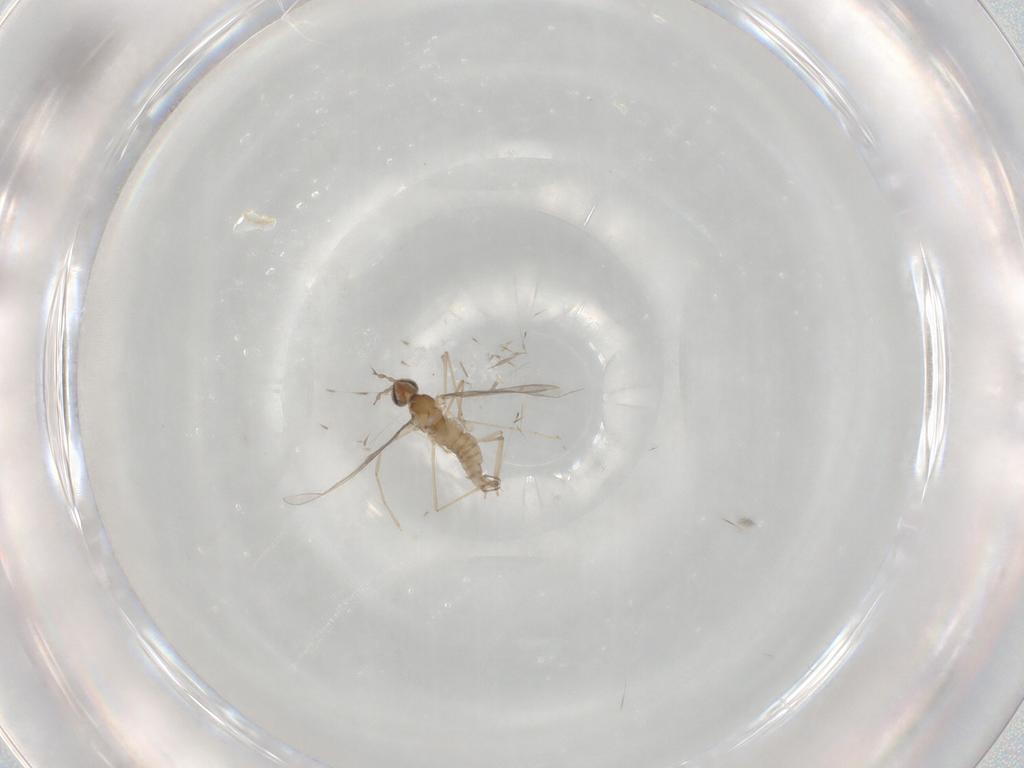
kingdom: Animalia
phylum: Arthropoda
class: Insecta
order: Diptera
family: Cecidomyiidae
